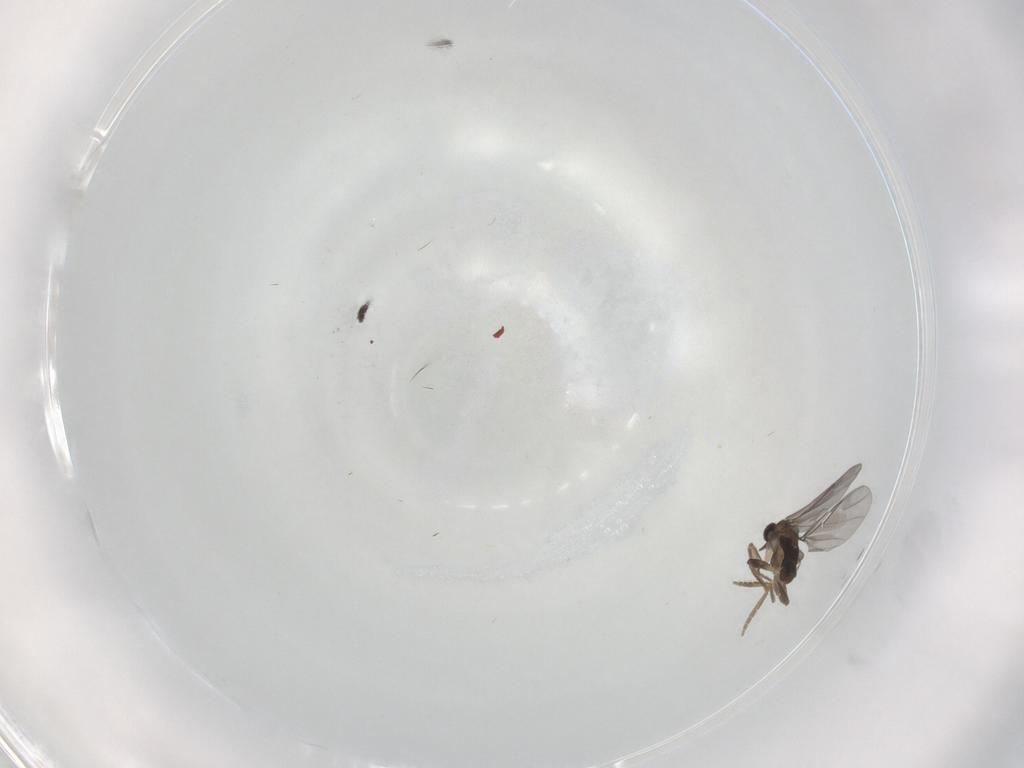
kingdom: Animalia
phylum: Arthropoda
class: Insecta
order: Diptera
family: Sciaridae
